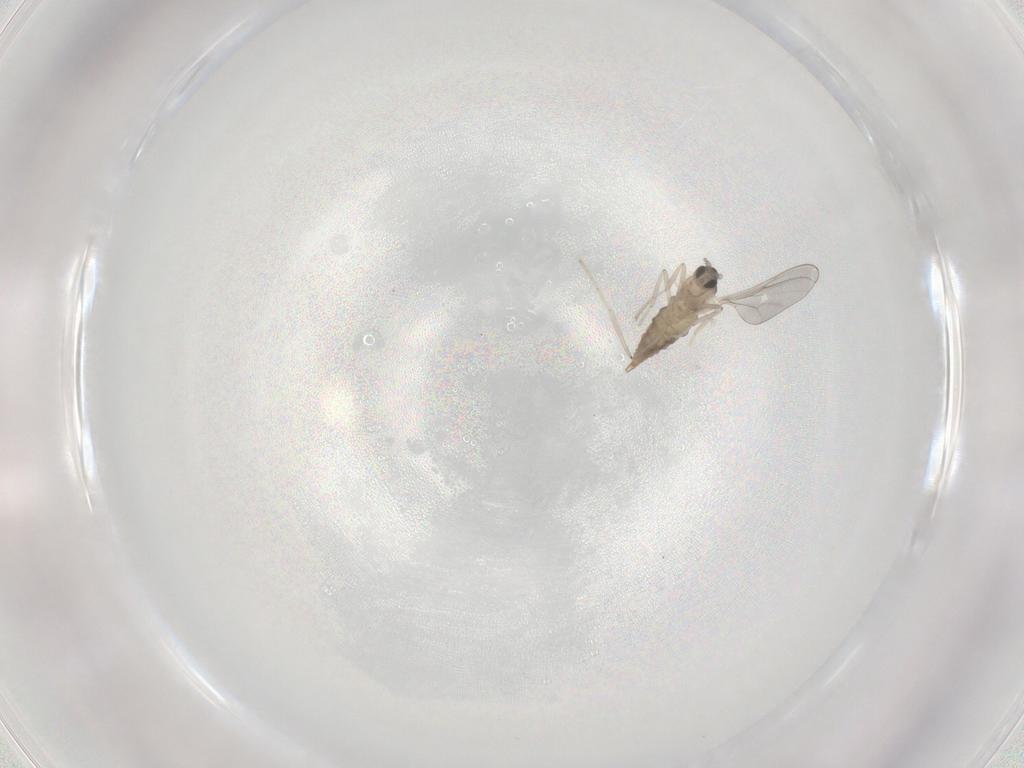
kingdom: Animalia
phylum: Arthropoda
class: Insecta
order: Diptera
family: Cecidomyiidae
